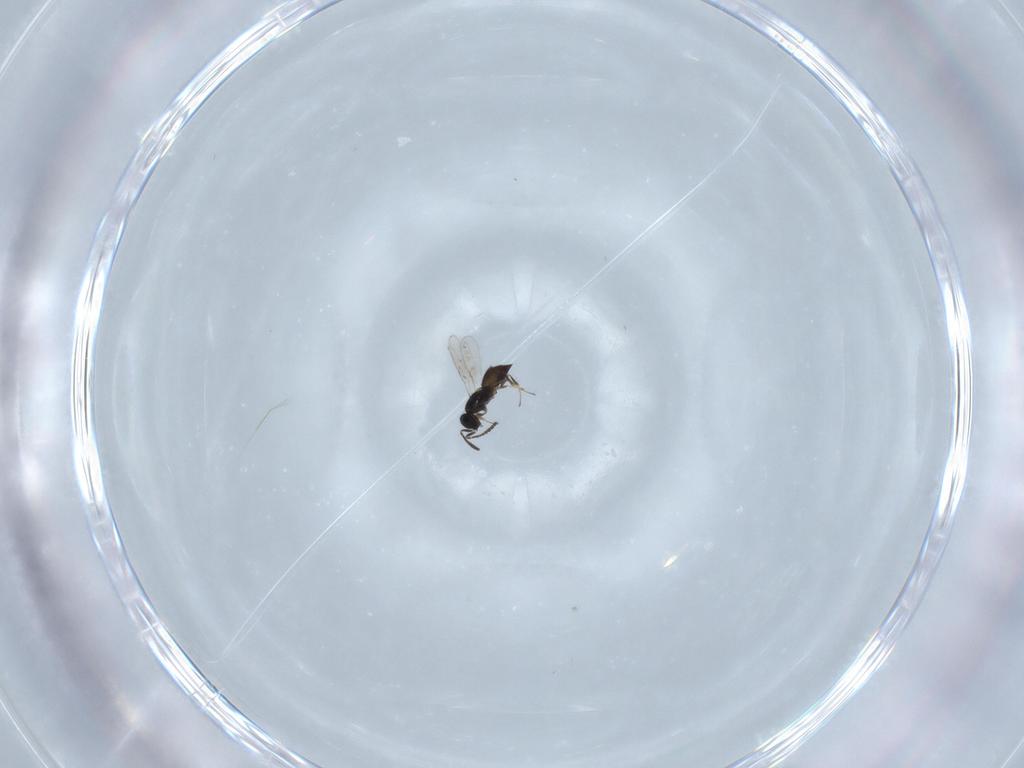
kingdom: Animalia
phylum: Arthropoda
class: Insecta
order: Hymenoptera
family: Scelionidae
